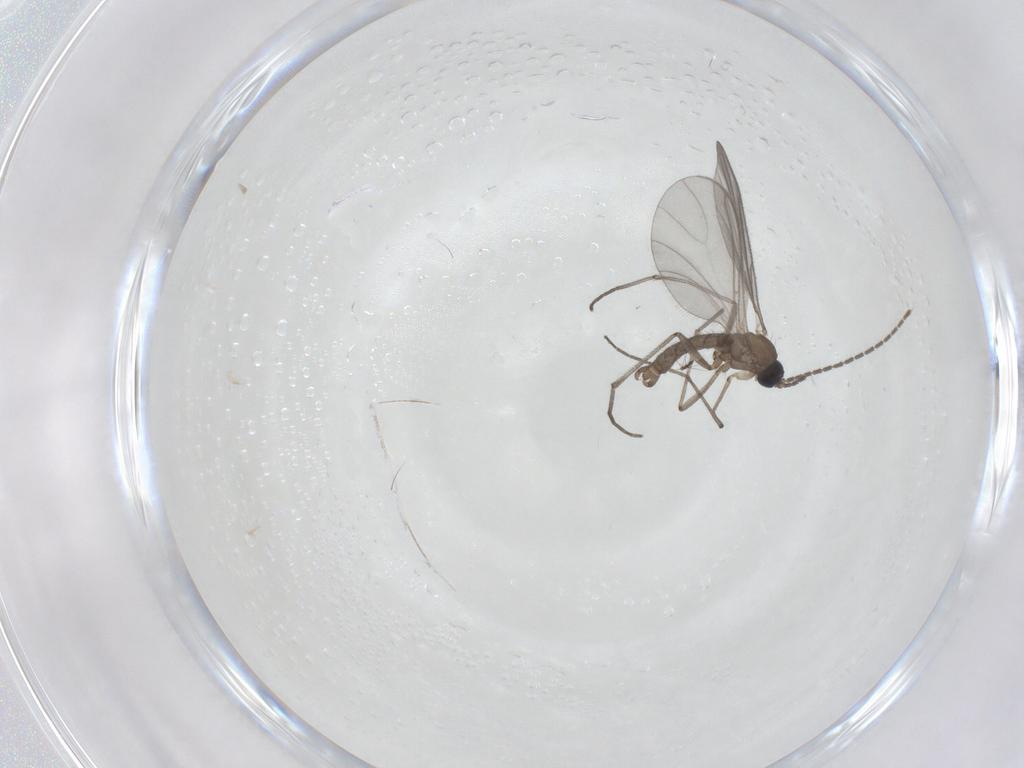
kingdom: Animalia
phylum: Arthropoda
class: Insecta
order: Diptera
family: Sciaridae
